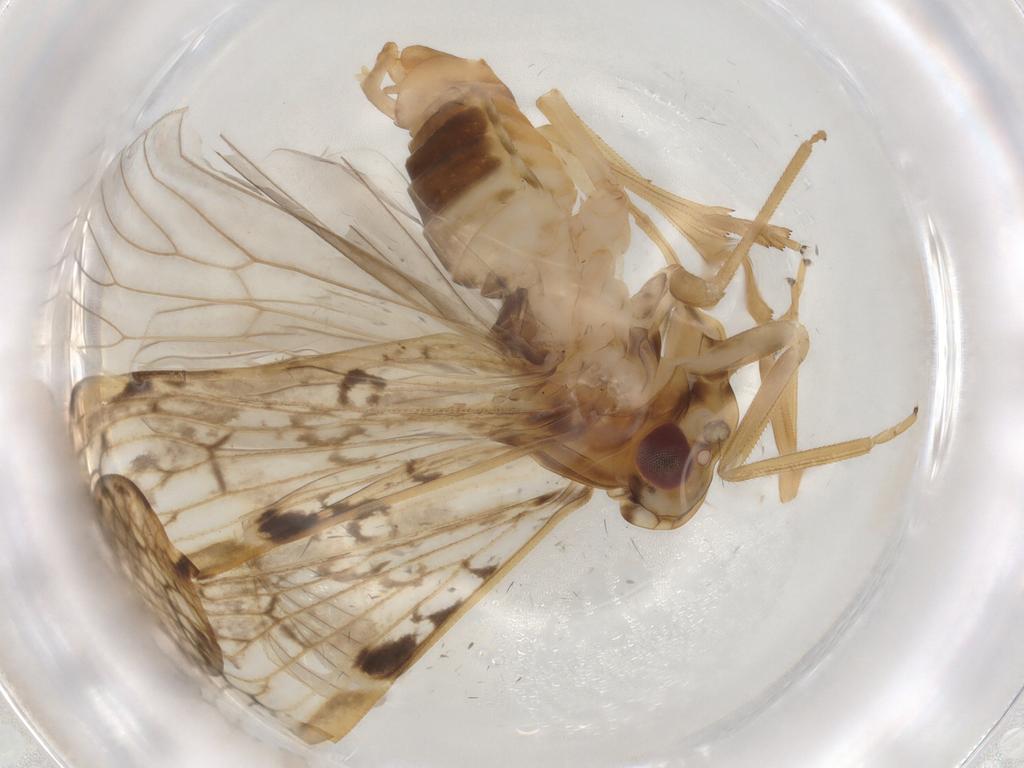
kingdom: Animalia
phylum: Arthropoda
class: Insecta
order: Hemiptera
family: Cixiidae
